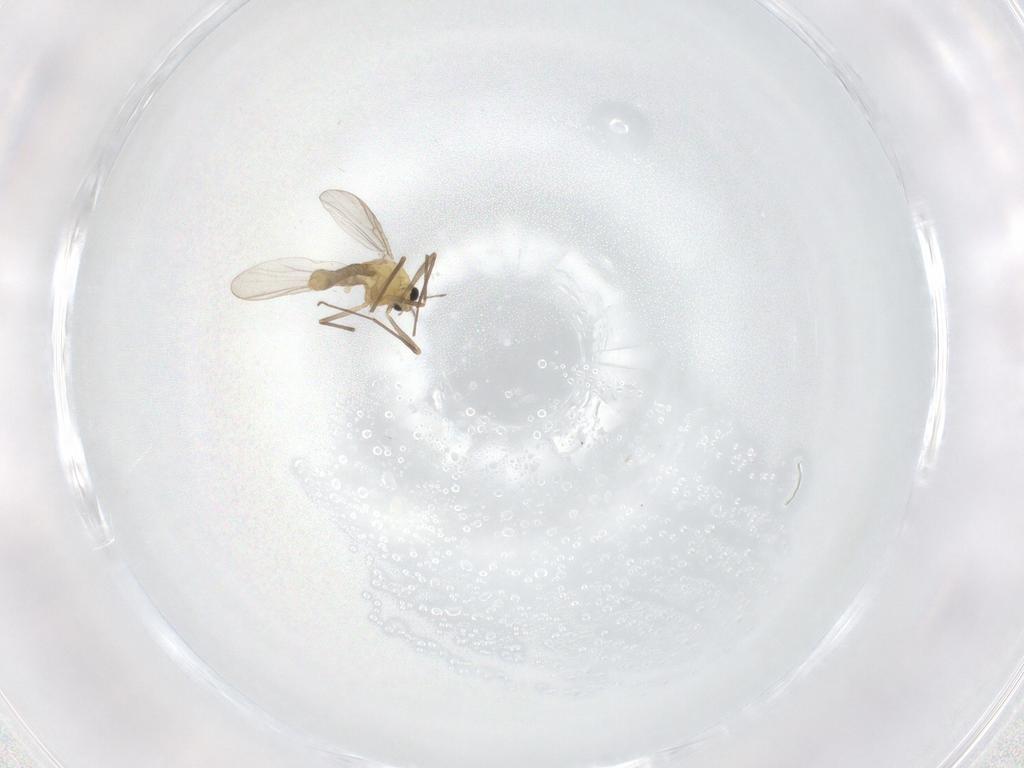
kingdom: Animalia
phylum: Arthropoda
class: Insecta
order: Diptera
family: Chironomidae
